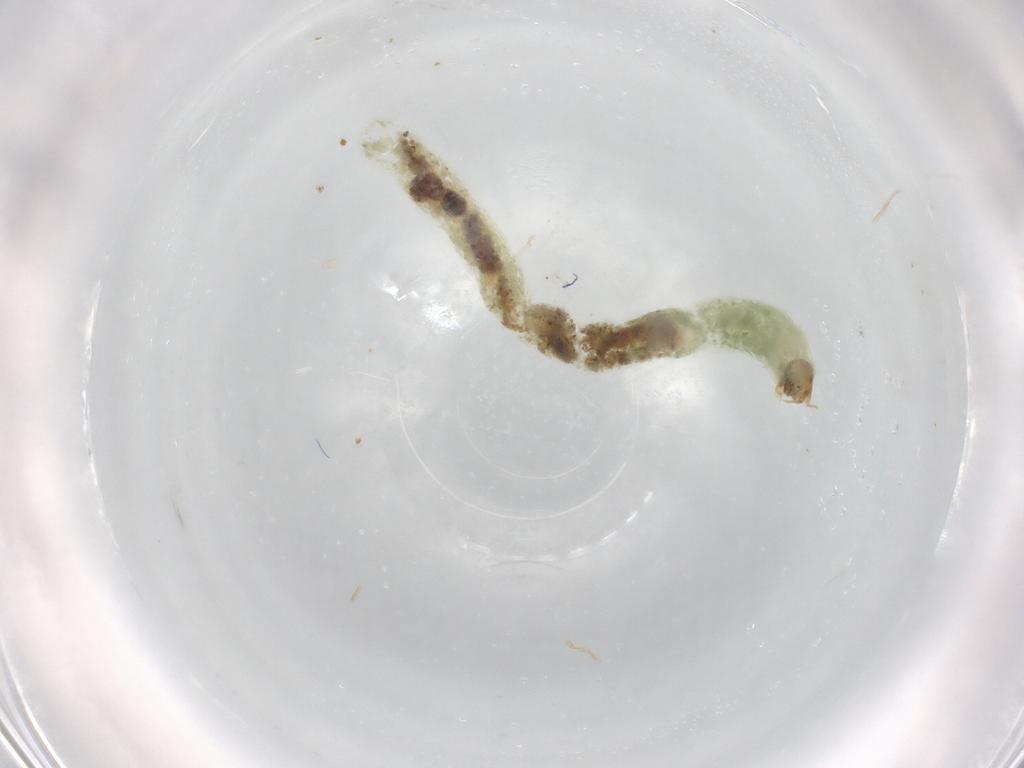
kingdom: Animalia
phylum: Arthropoda
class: Insecta
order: Diptera
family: Chironomidae
